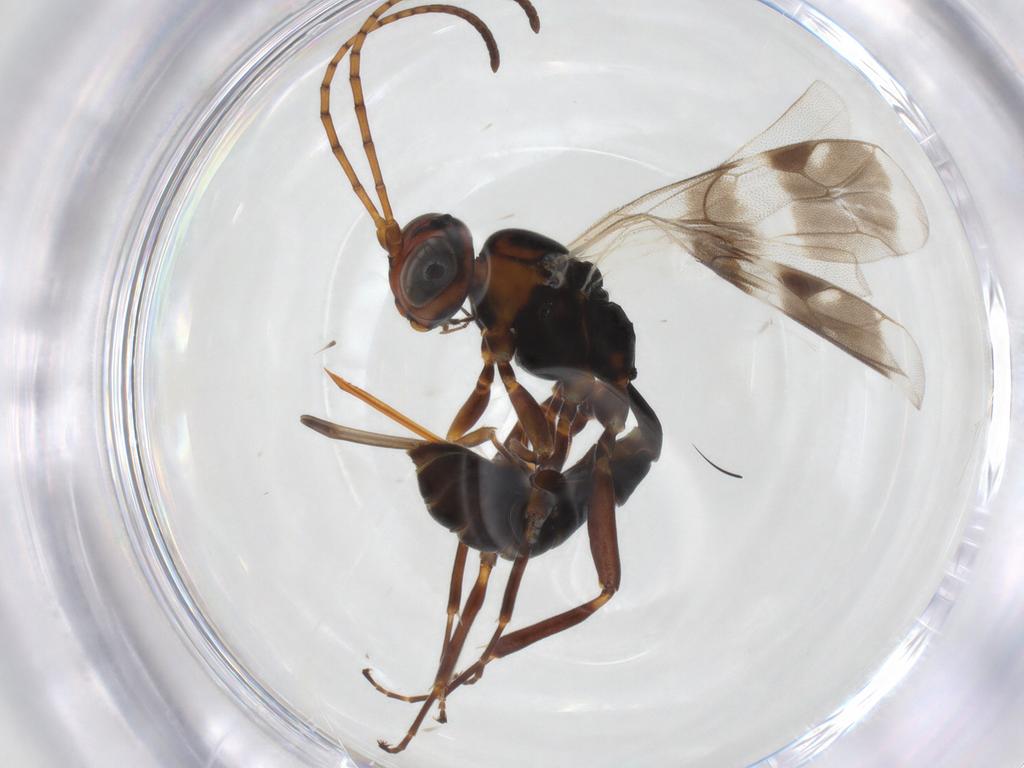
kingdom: Animalia
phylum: Arthropoda
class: Insecta
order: Hymenoptera
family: Ichneumonidae
